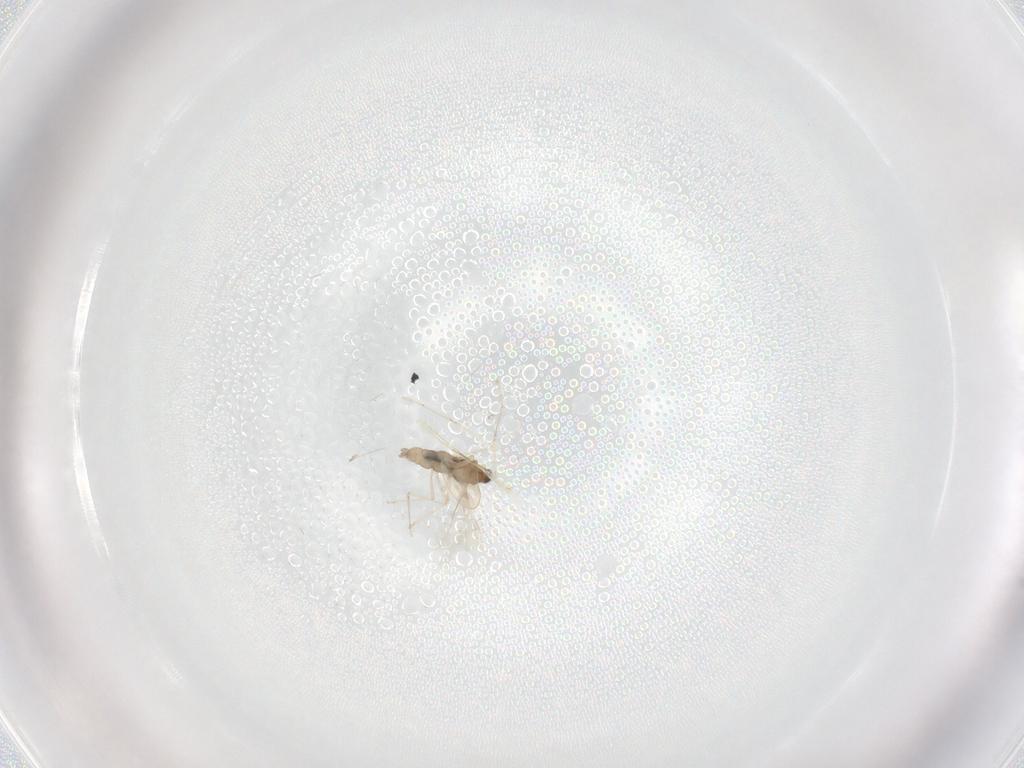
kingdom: Animalia
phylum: Arthropoda
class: Insecta
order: Diptera
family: Cecidomyiidae
